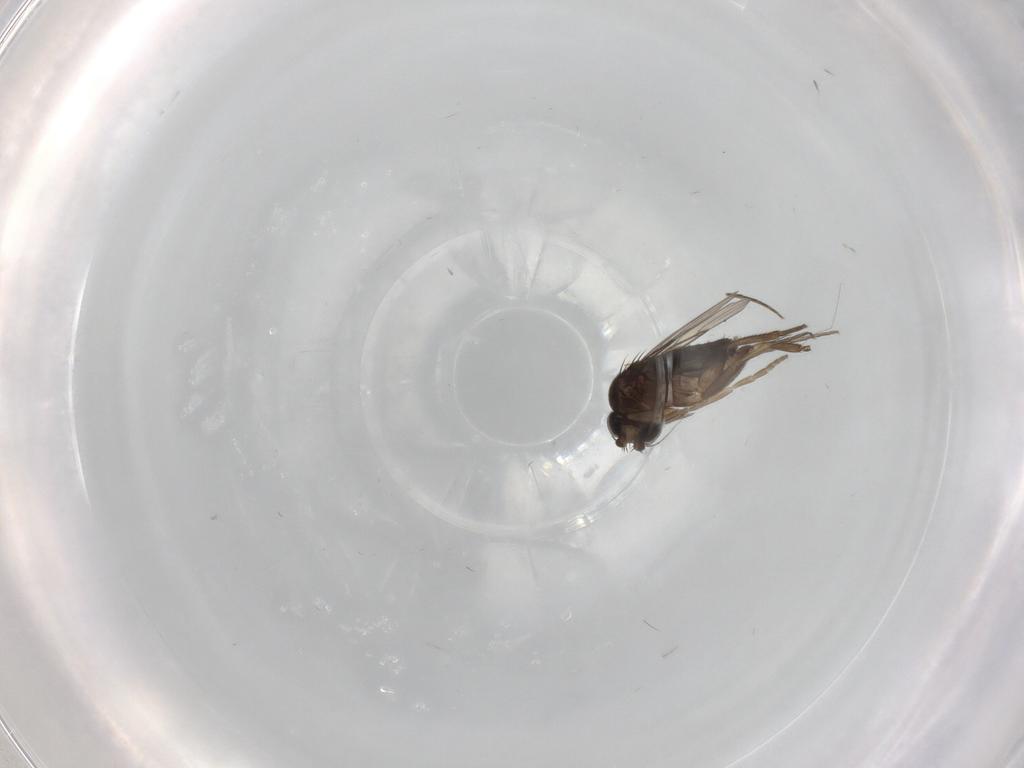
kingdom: Animalia
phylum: Arthropoda
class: Insecta
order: Diptera
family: Phoridae
